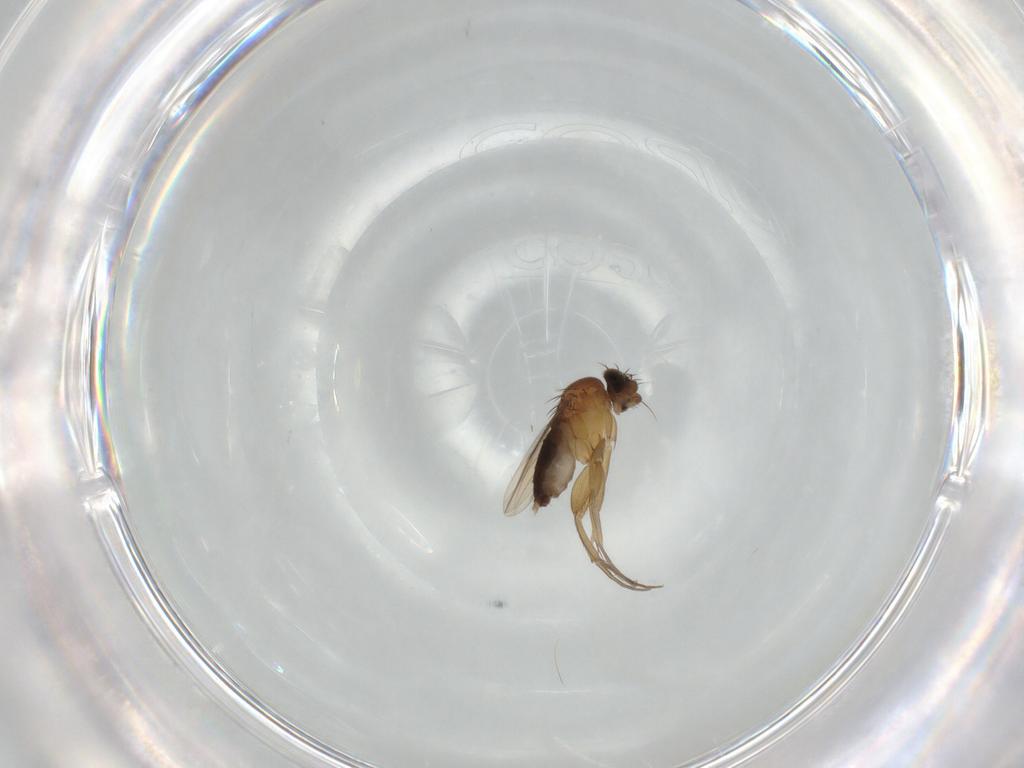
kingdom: Animalia
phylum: Arthropoda
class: Insecta
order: Diptera
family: Phoridae
